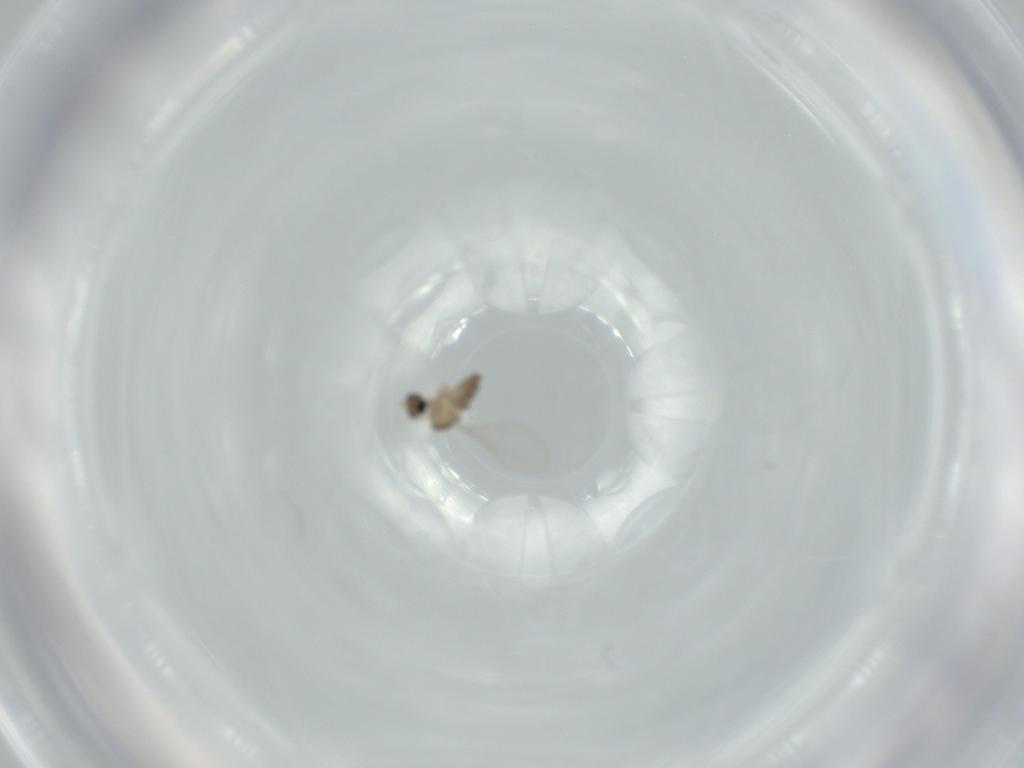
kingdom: Animalia
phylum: Arthropoda
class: Insecta
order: Diptera
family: Cecidomyiidae
